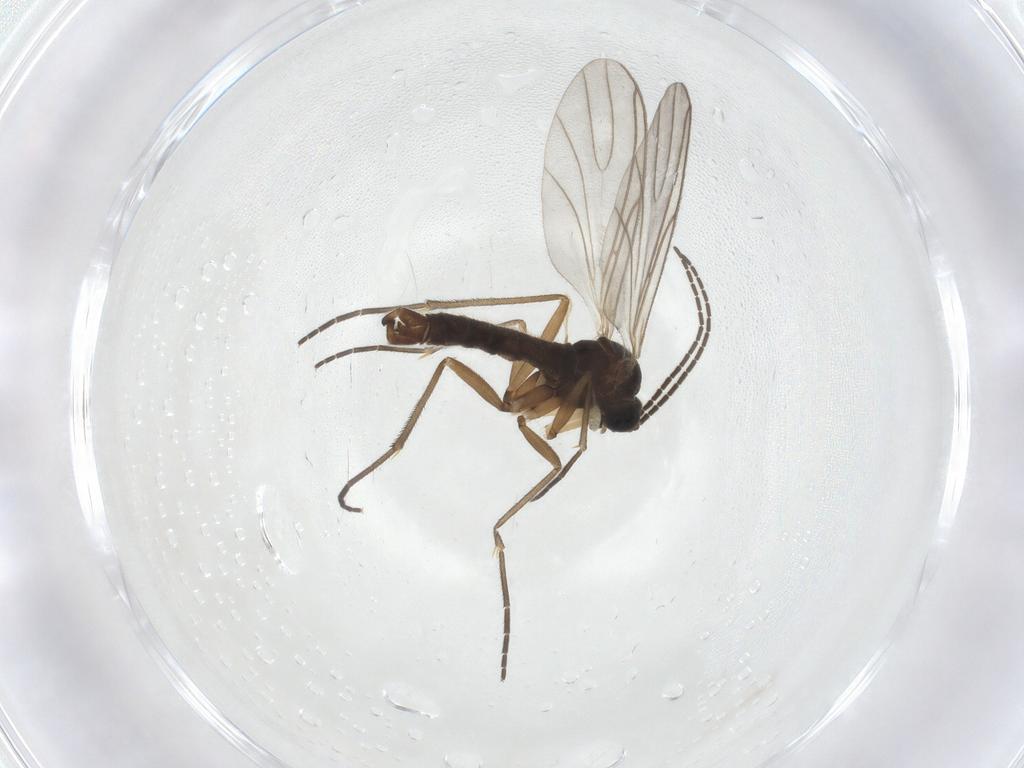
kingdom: Animalia
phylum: Arthropoda
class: Insecta
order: Diptera
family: Sciaridae
